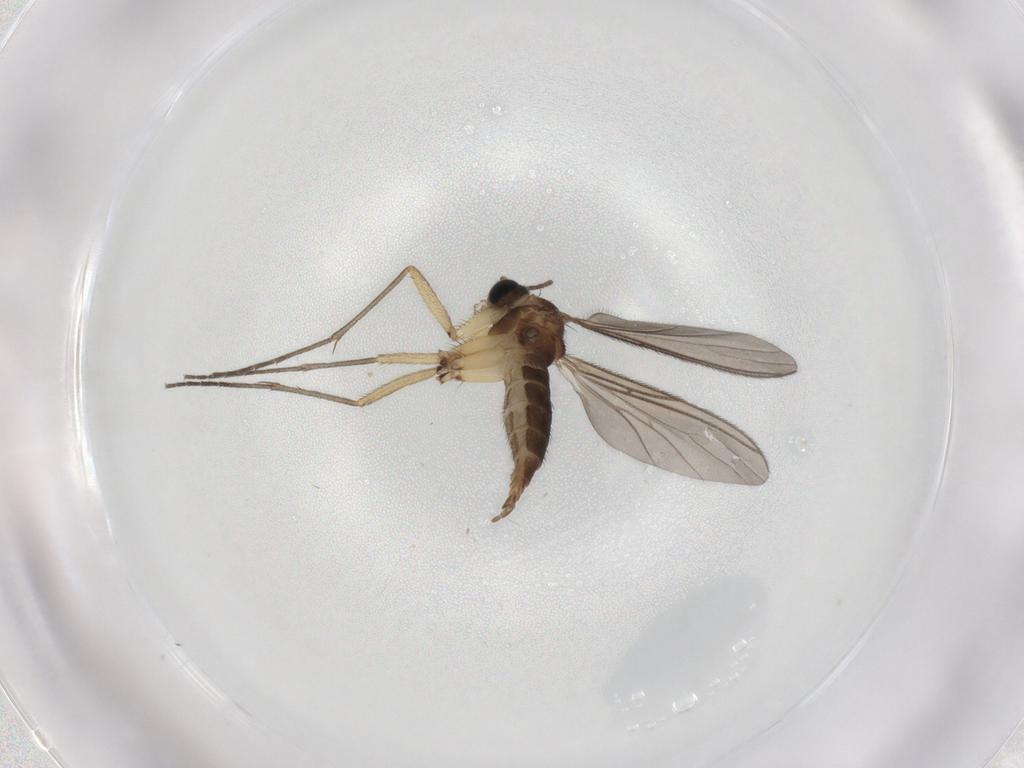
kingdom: Animalia
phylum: Arthropoda
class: Insecta
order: Diptera
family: Sciaridae
